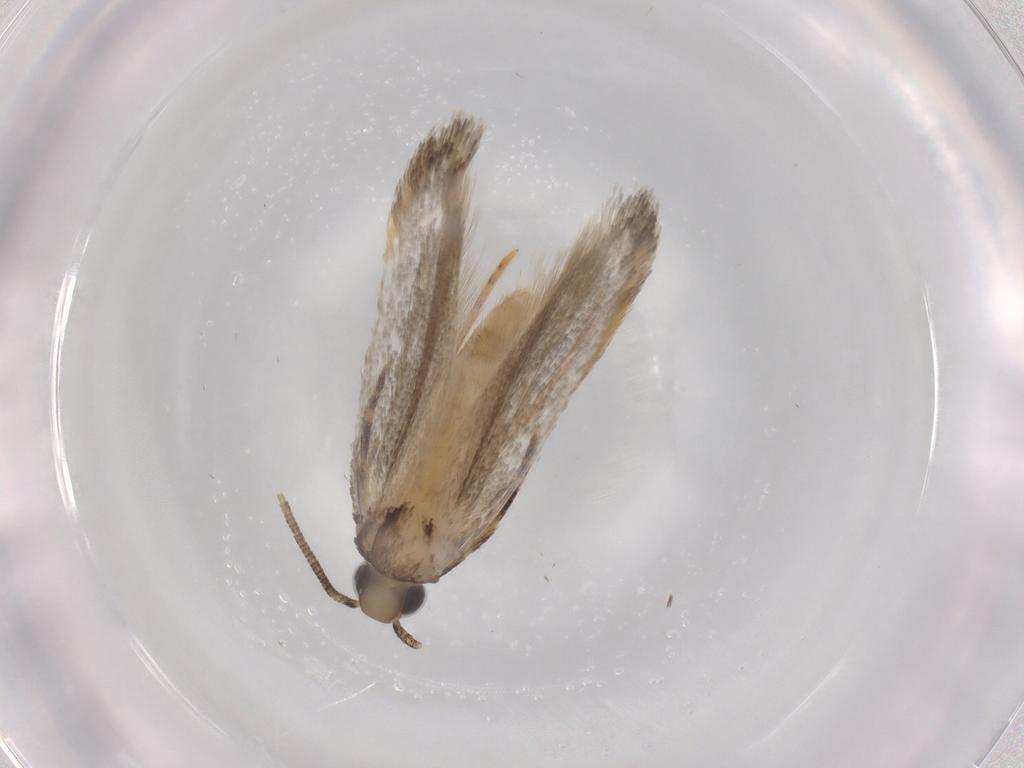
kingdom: Animalia
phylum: Arthropoda
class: Insecta
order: Lepidoptera
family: Autostichidae
